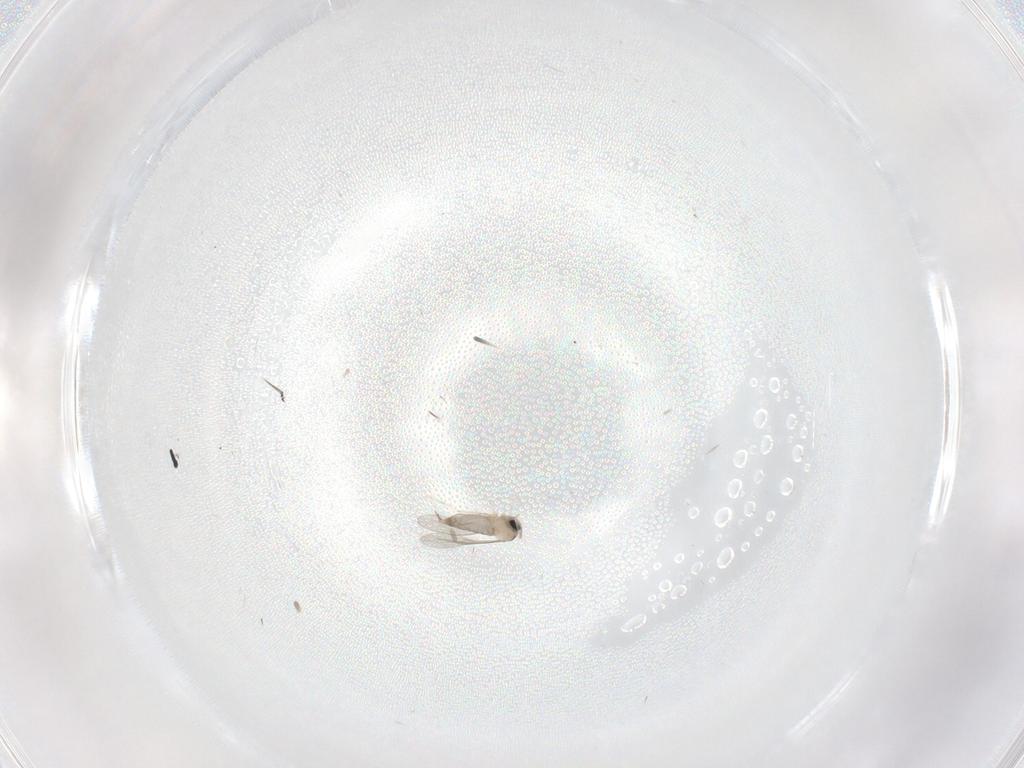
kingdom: Animalia
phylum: Arthropoda
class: Insecta
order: Diptera
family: Sciaridae
